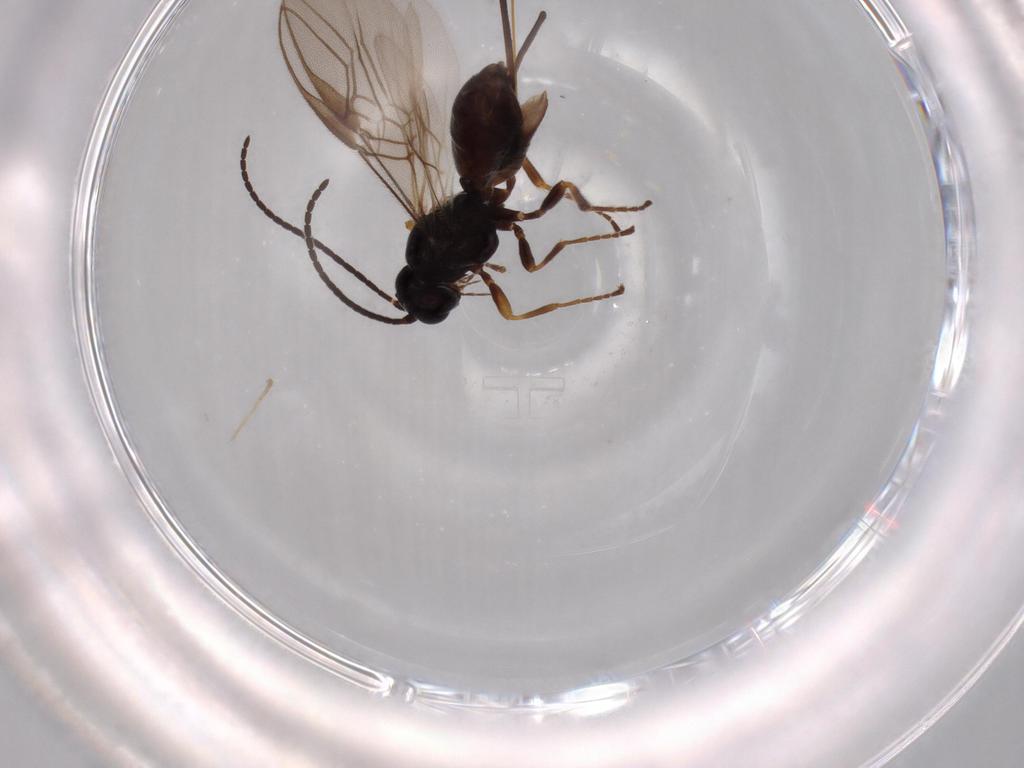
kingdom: Animalia
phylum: Arthropoda
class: Insecta
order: Hymenoptera
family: Braconidae
